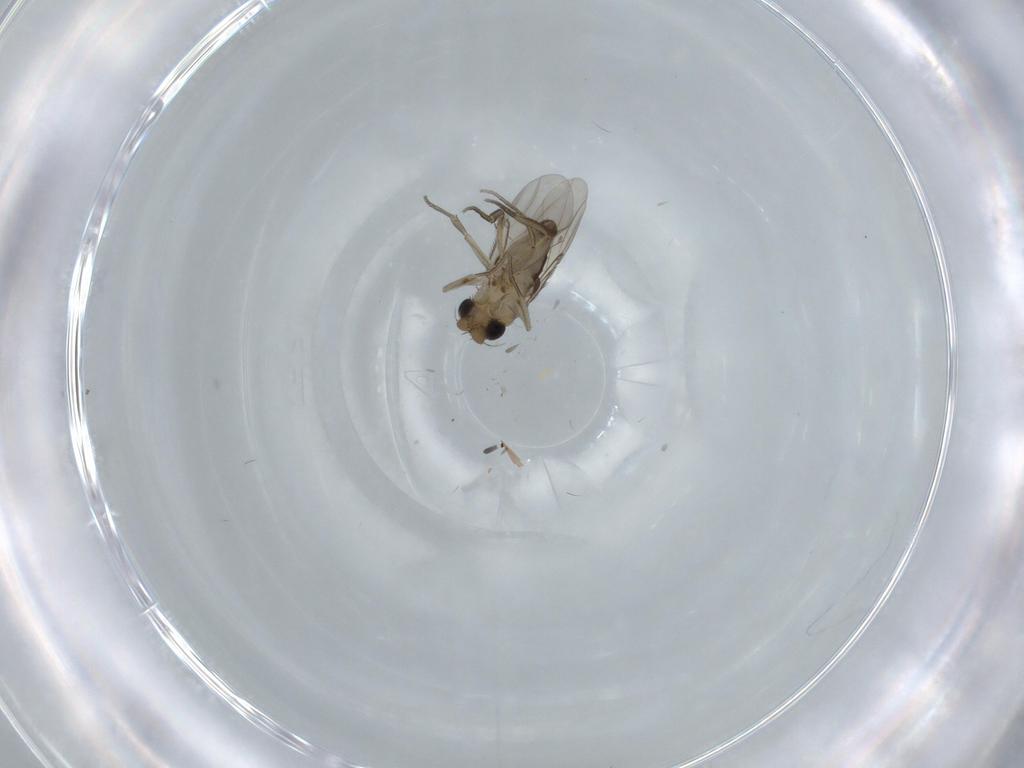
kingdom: Animalia
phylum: Arthropoda
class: Insecta
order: Diptera
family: Phoridae
